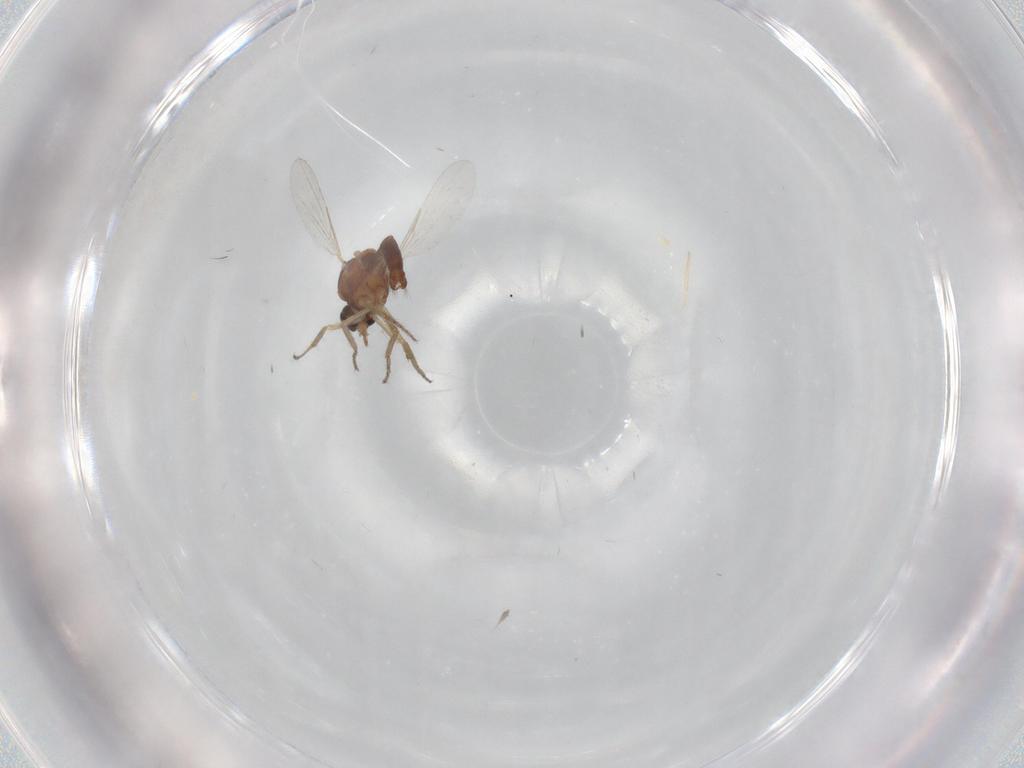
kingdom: Animalia
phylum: Arthropoda
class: Insecta
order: Diptera
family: Ceratopogonidae
